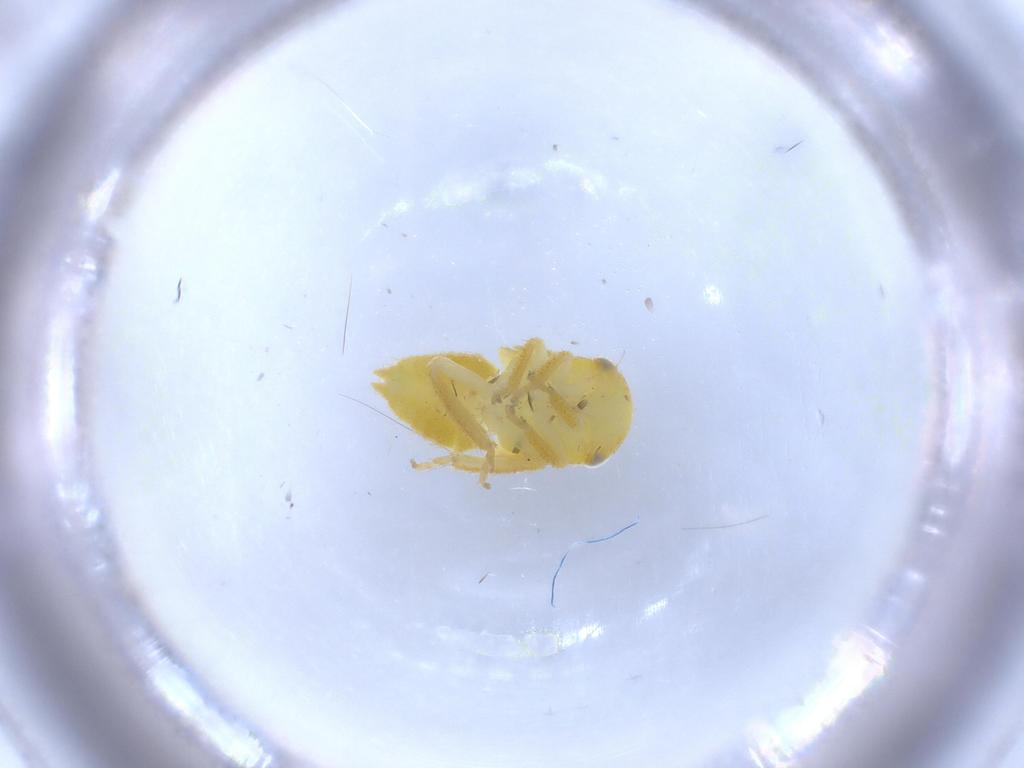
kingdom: Animalia
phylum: Arthropoda
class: Insecta
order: Hemiptera
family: Cicadellidae
